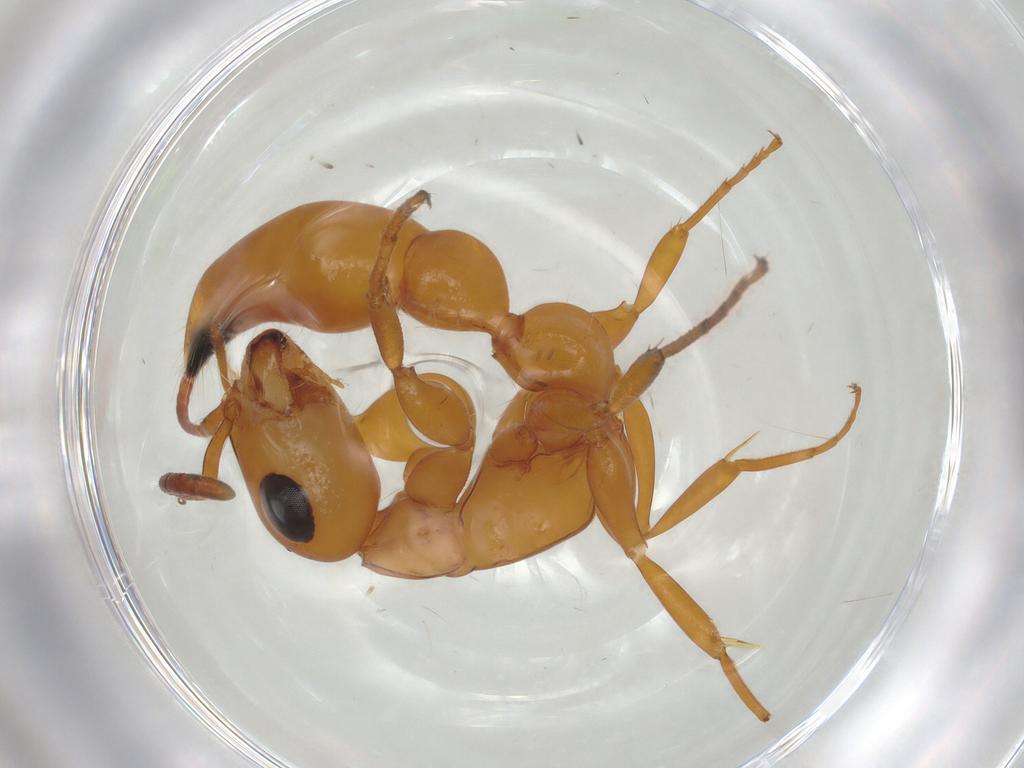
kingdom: Animalia
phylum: Arthropoda
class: Insecta
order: Hymenoptera
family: Formicidae
